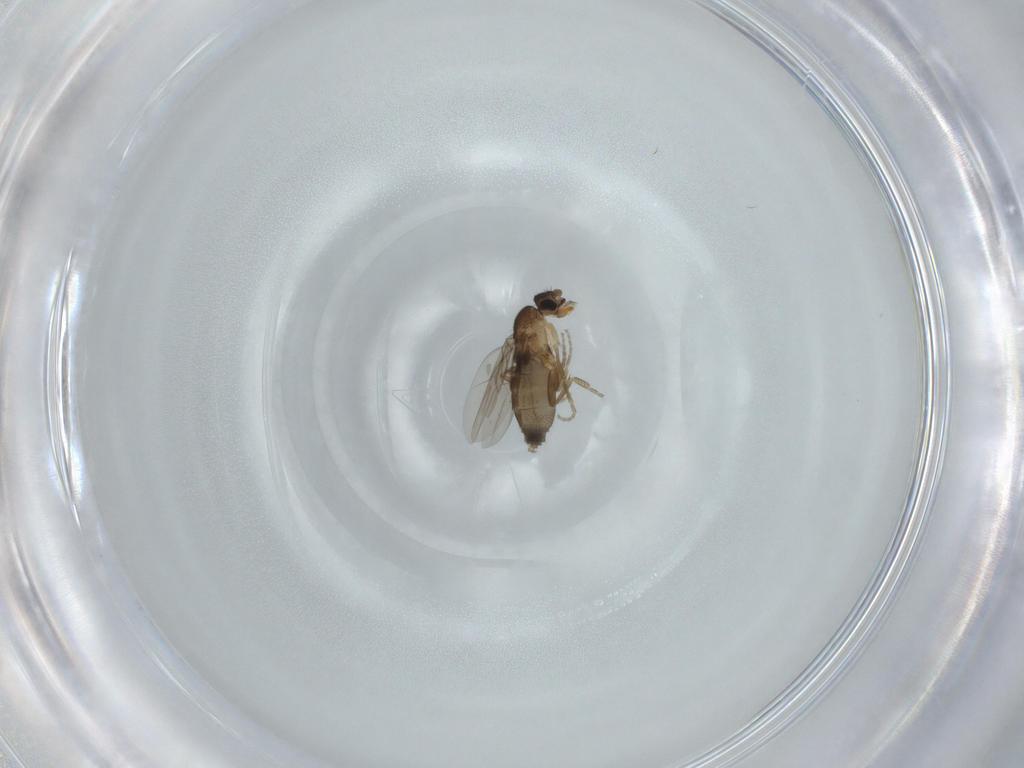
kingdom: Animalia
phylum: Arthropoda
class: Insecta
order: Diptera
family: Phoridae
